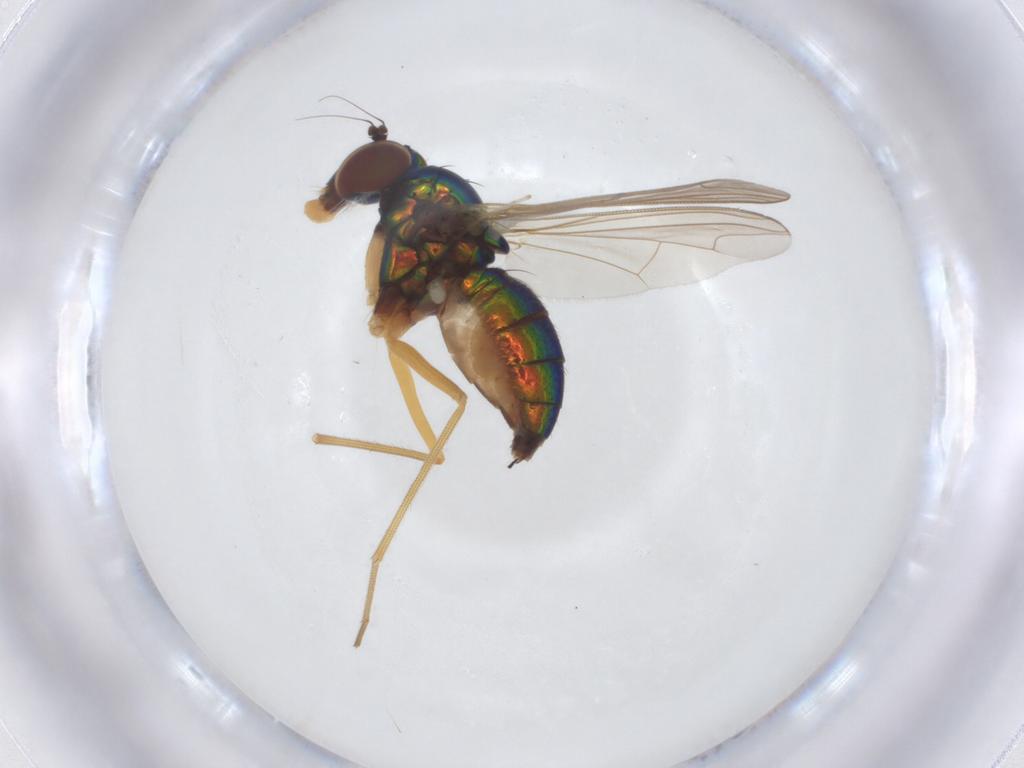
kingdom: Animalia
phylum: Arthropoda
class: Insecta
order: Diptera
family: Dolichopodidae
